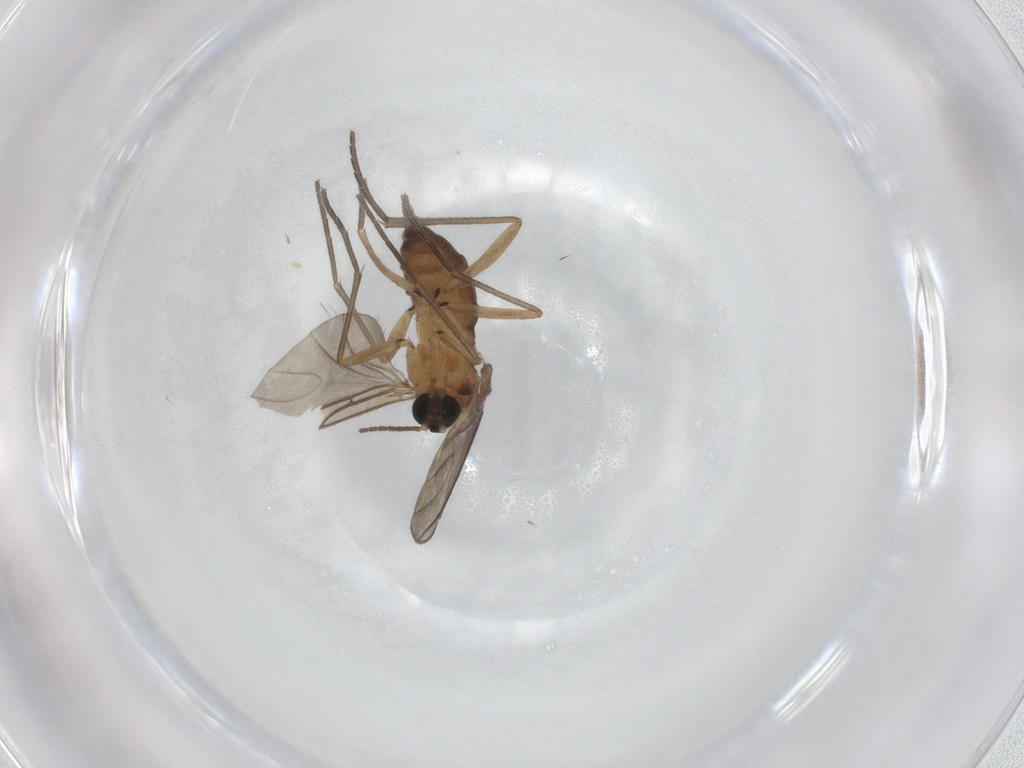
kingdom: Animalia
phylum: Arthropoda
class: Insecta
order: Diptera
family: Sciaridae
